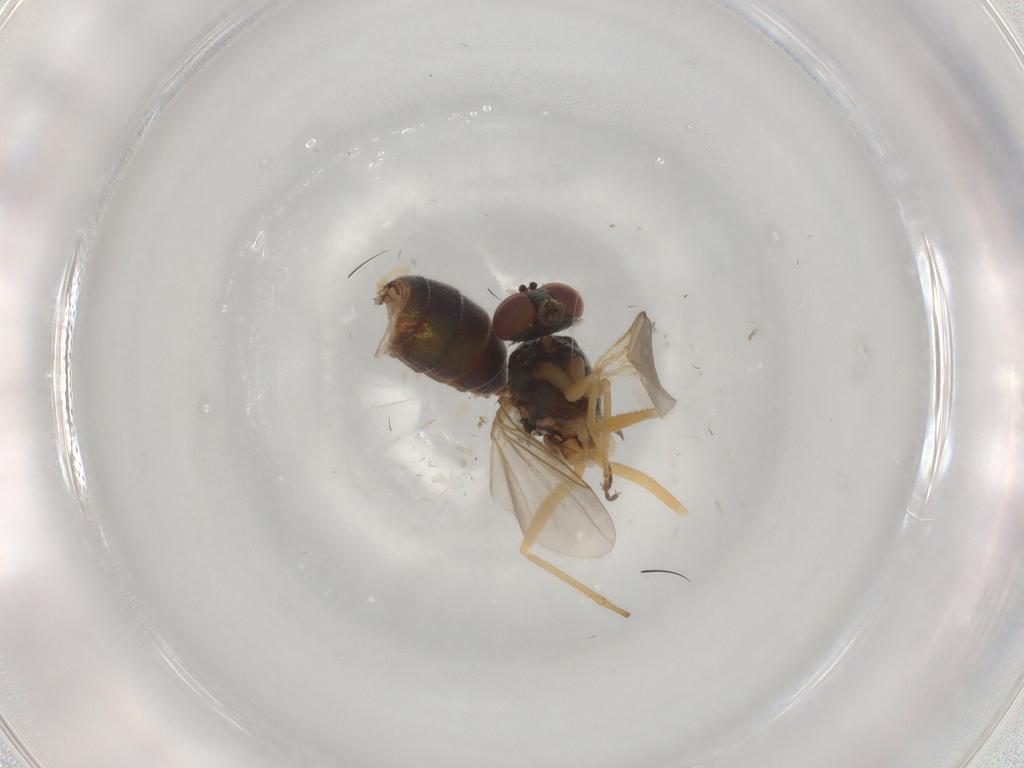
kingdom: Animalia
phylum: Arthropoda
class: Insecta
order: Diptera
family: Dolichopodidae
